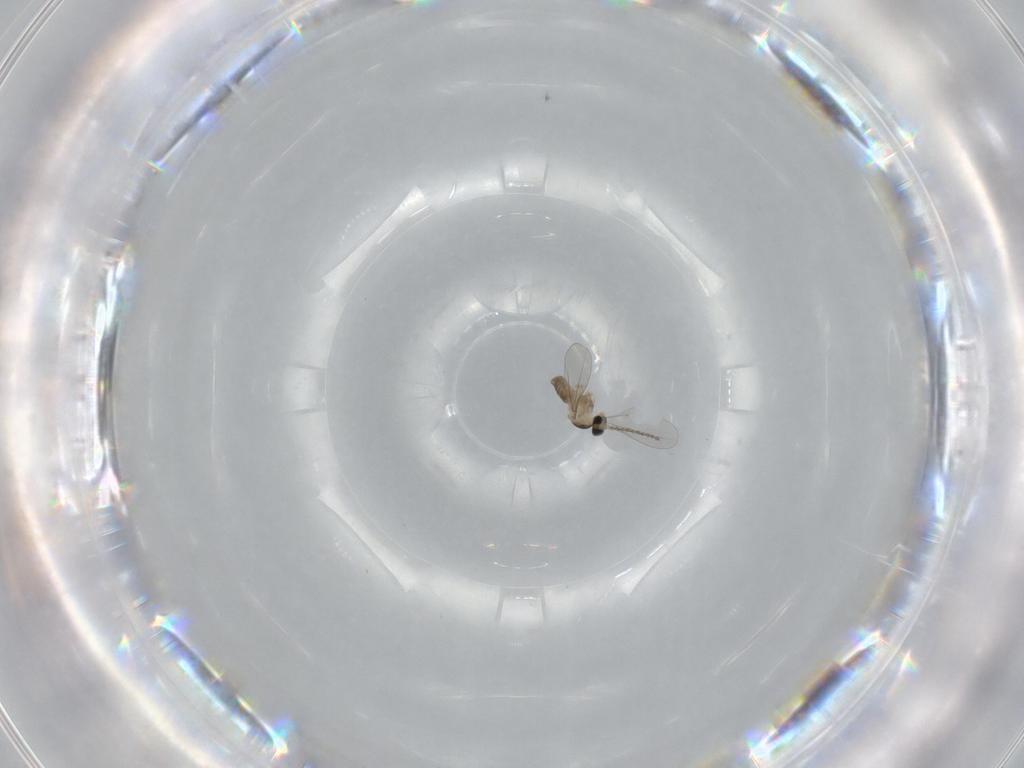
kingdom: Animalia
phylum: Arthropoda
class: Insecta
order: Diptera
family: Cecidomyiidae
